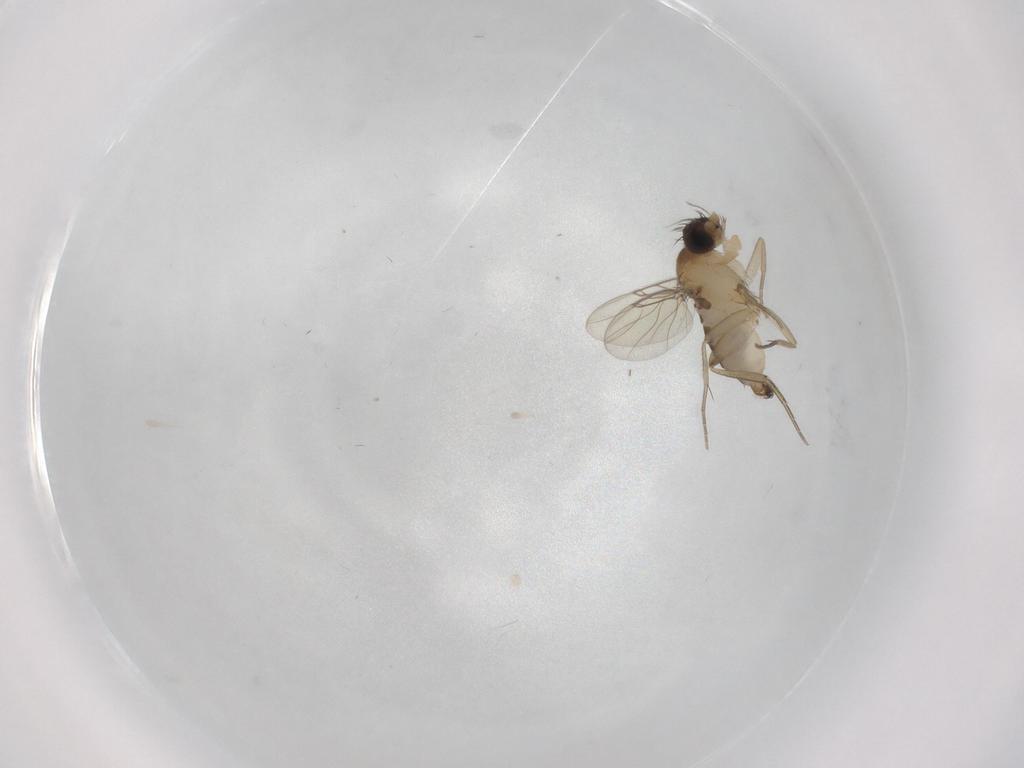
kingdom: Animalia
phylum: Arthropoda
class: Insecta
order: Diptera
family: Phoridae
